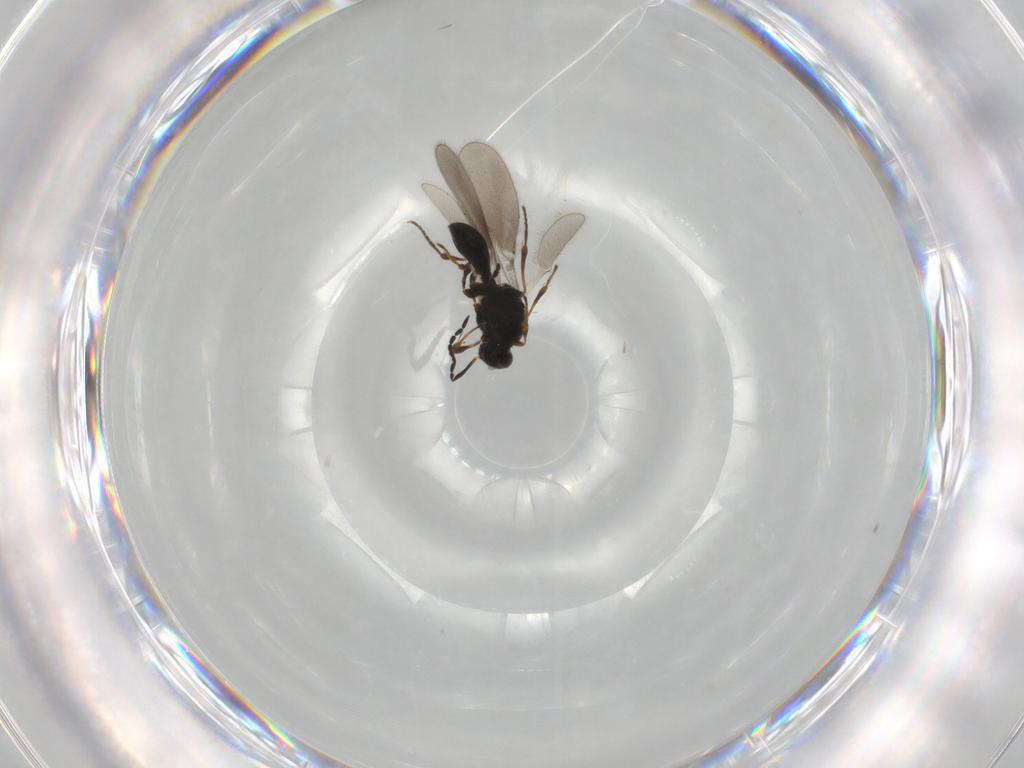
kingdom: Animalia
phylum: Arthropoda
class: Insecta
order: Hymenoptera
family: Platygastridae
